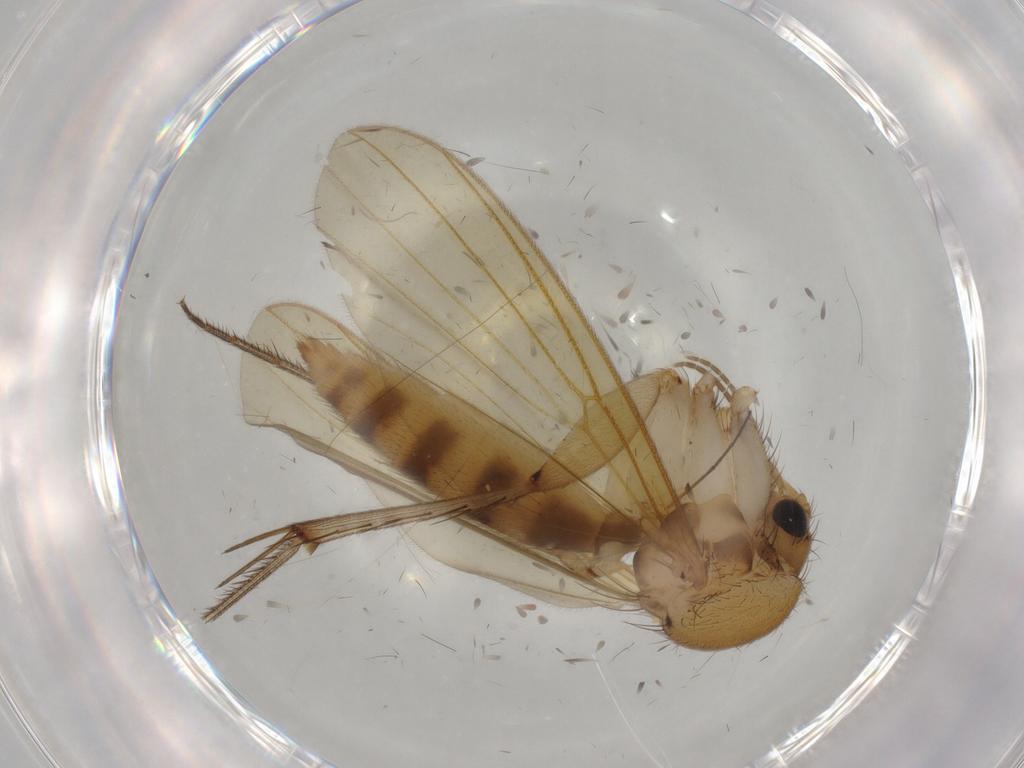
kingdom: Animalia
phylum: Arthropoda
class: Insecta
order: Diptera
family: Mycetophilidae
